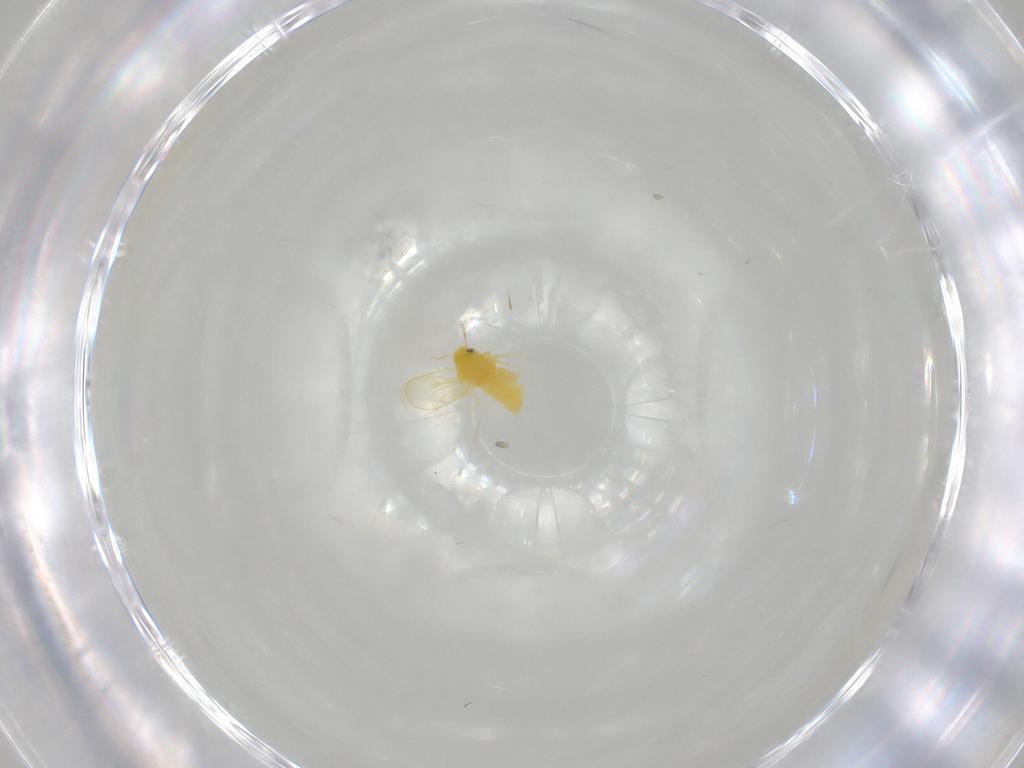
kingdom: Animalia
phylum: Arthropoda
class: Insecta
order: Hemiptera
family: Aleyrodidae
